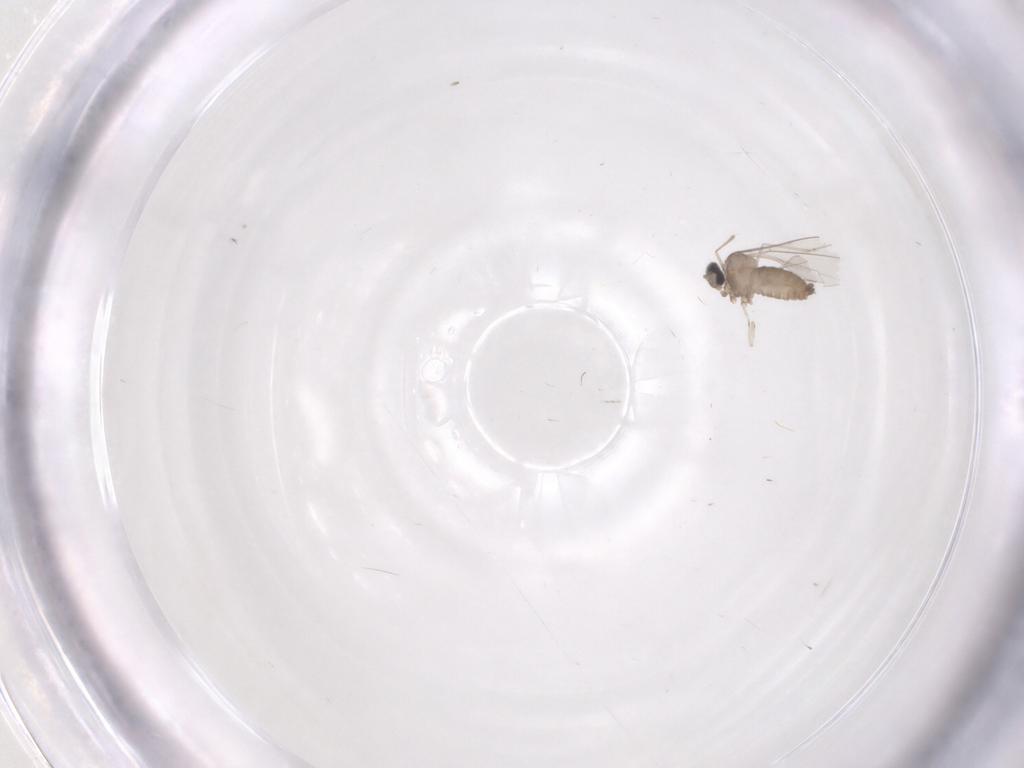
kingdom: Animalia
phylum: Arthropoda
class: Insecta
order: Diptera
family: Cecidomyiidae
